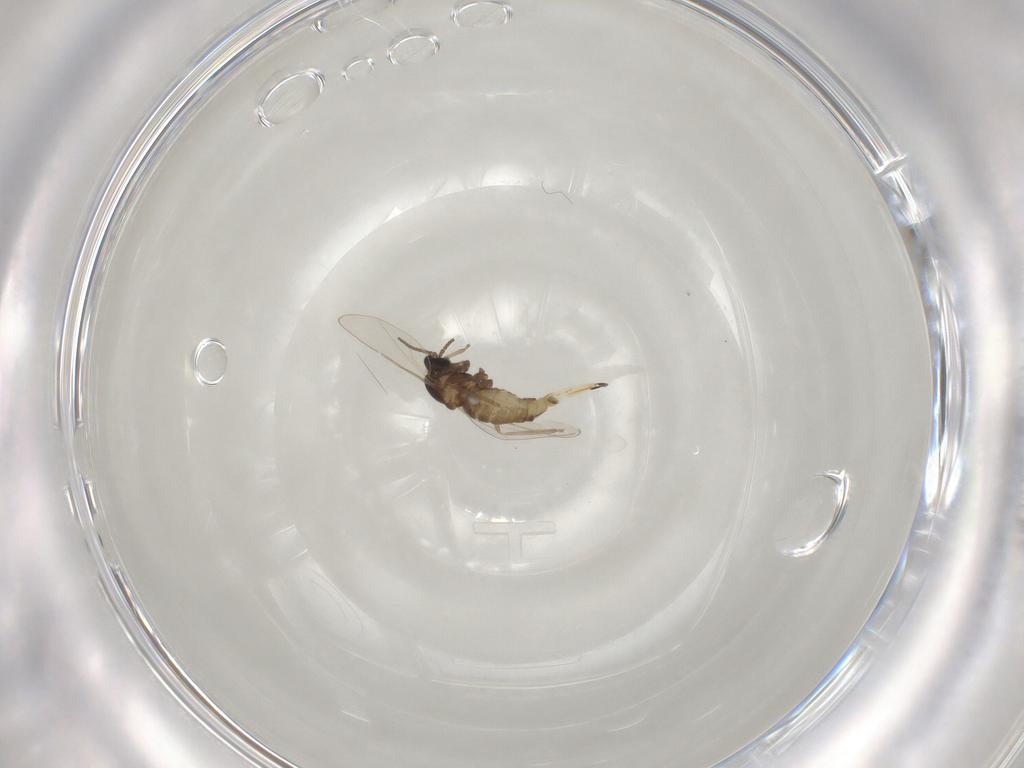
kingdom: Animalia
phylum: Arthropoda
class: Insecta
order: Diptera
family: Cecidomyiidae
